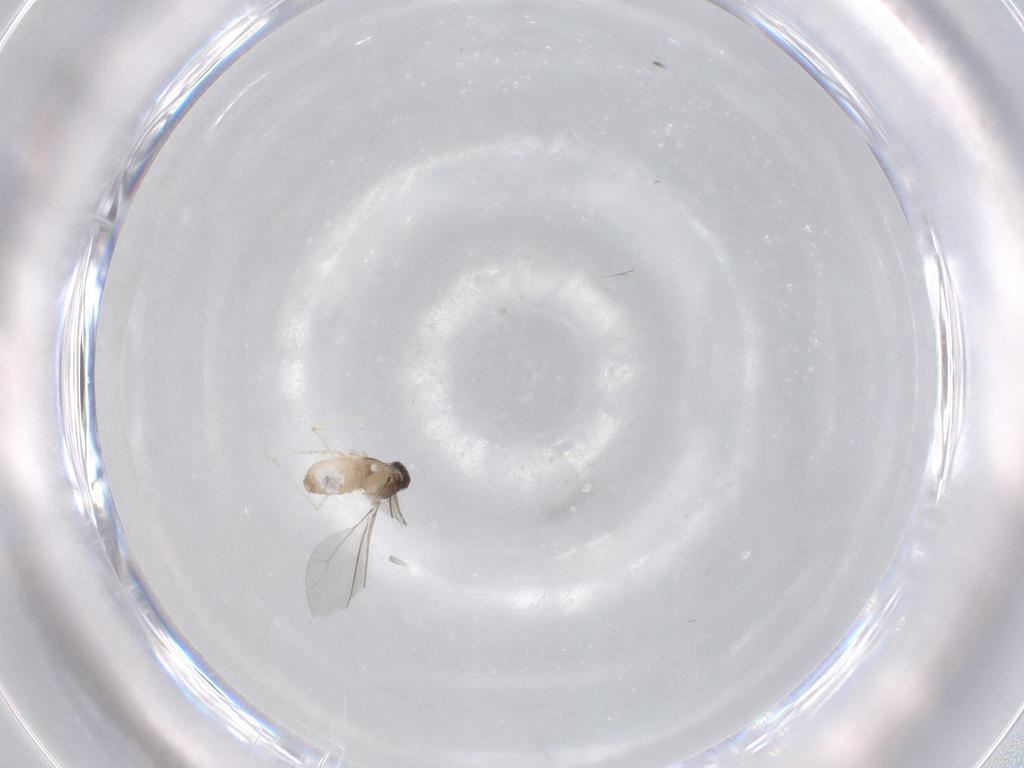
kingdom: Animalia
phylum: Arthropoda
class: Insecta
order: Diptera
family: Cecidomyiidae
